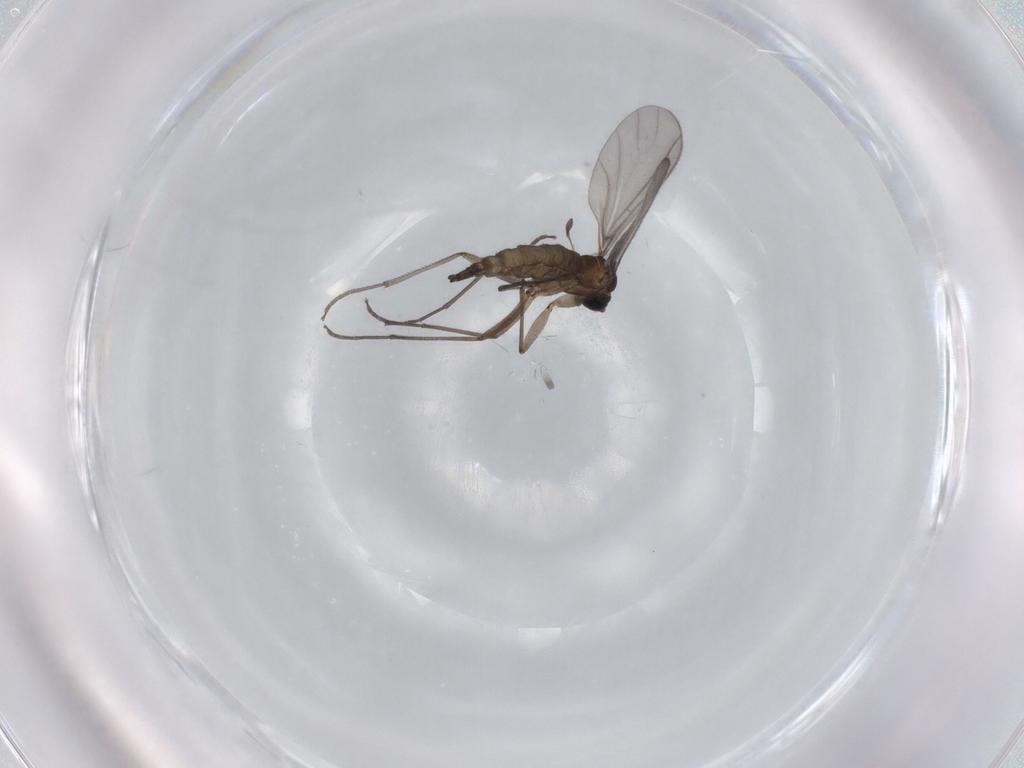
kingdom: Animalia
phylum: Arthropoda
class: Insecta
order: Diptera
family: Sciaridae
